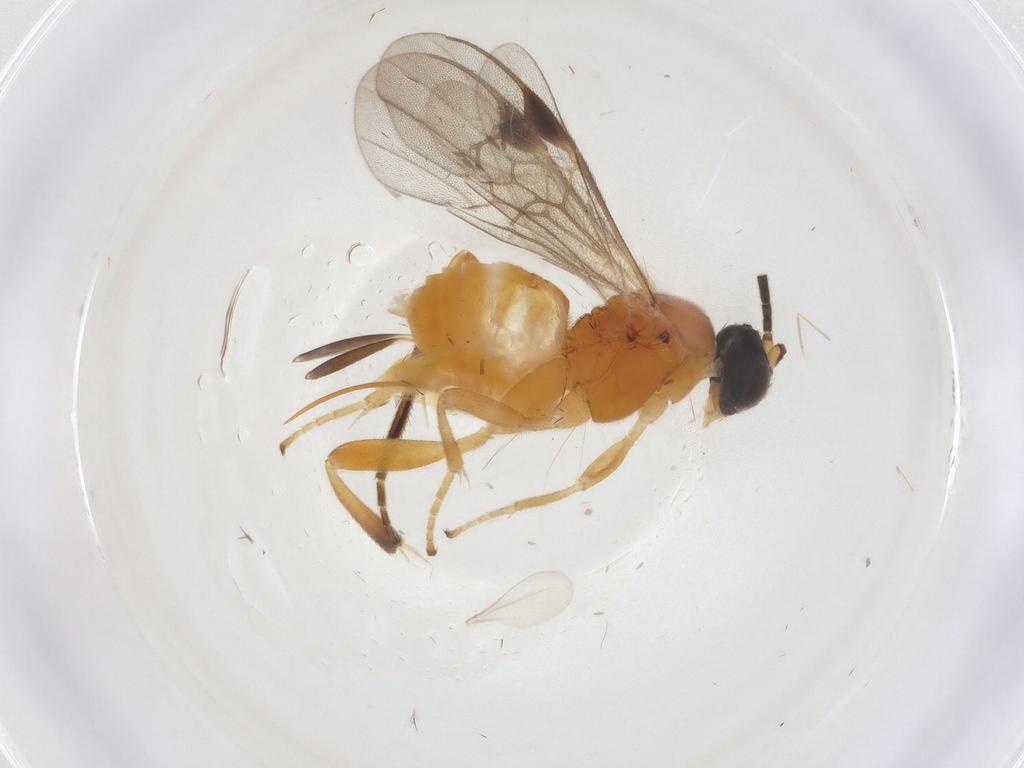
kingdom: Animalia
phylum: Arthropoda
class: Insecta
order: Hymenoptera
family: Braconidae
